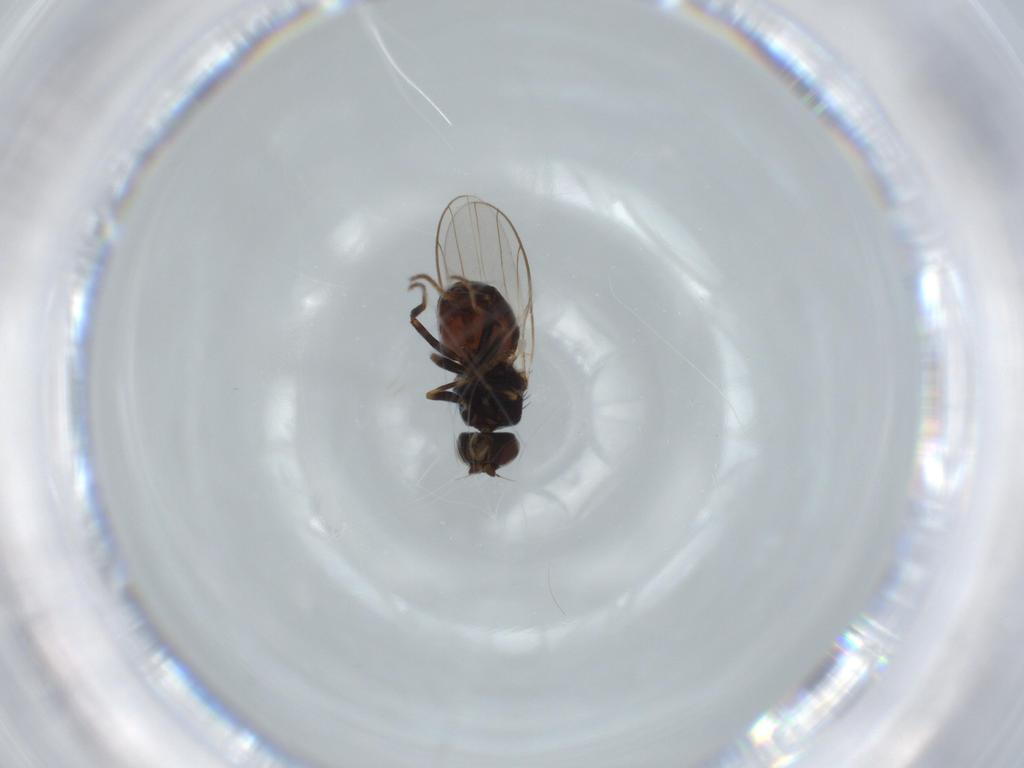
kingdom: Animalia
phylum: Arthropoda
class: Insecta
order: Diptera
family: Chloropidae
